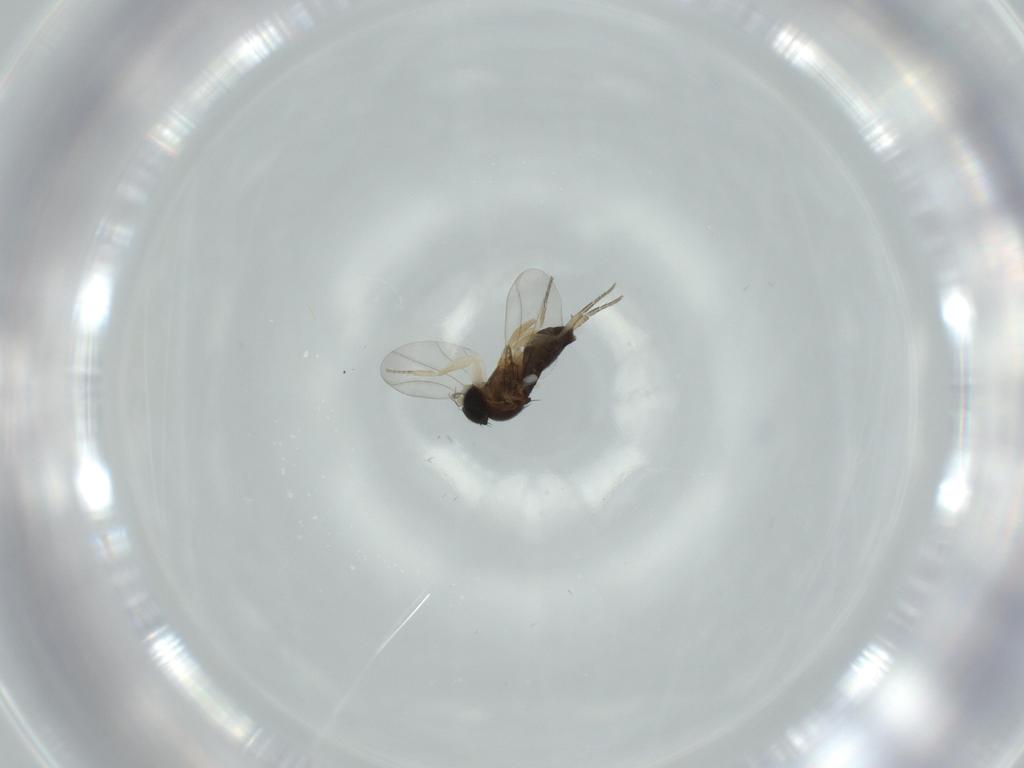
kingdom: Animalia
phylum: Arthropoda
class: Insecta
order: Diptera
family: Phoridae
